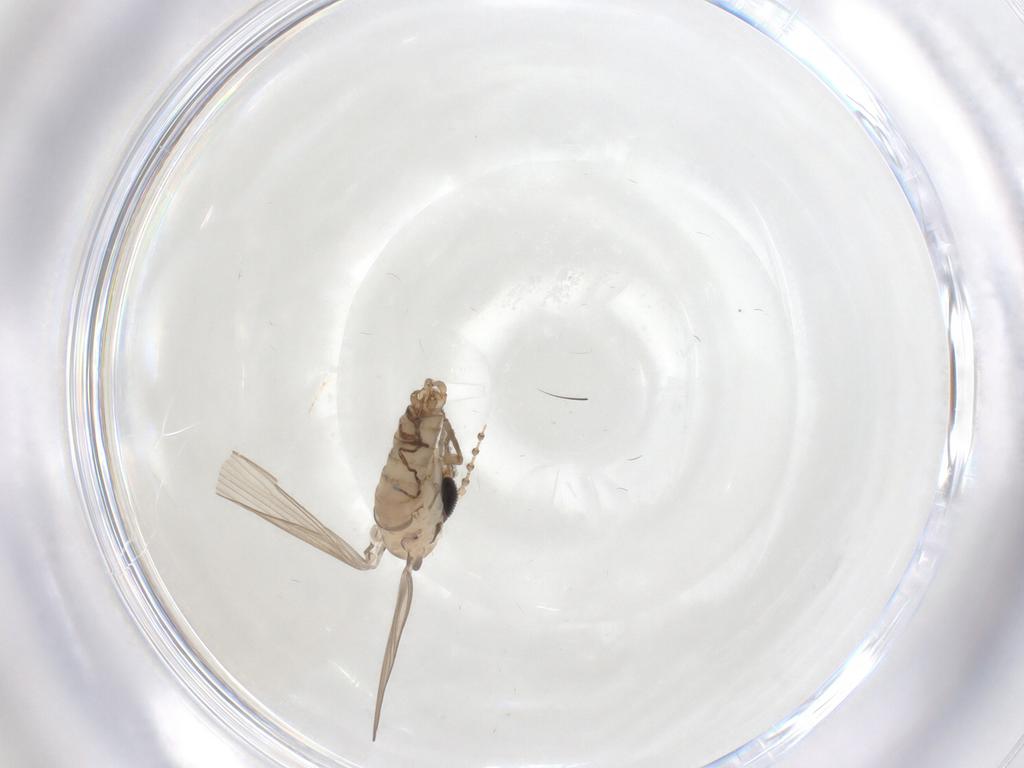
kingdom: Animalia
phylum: Arthropoda
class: Insecta
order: Diptera
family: Phoridae
